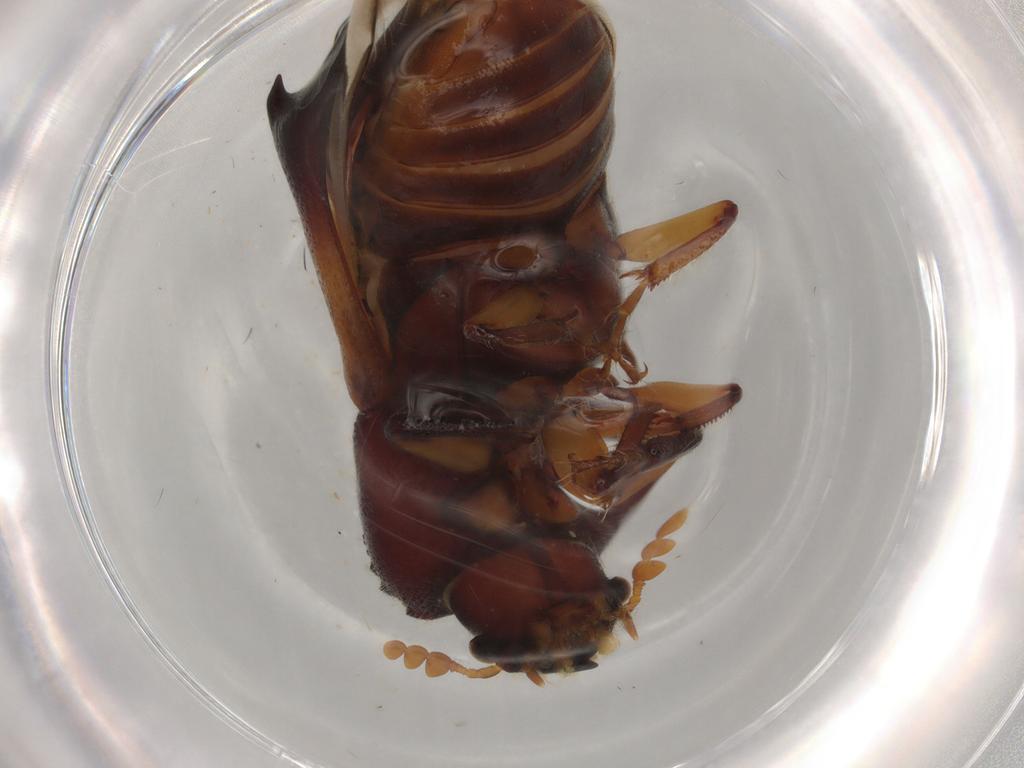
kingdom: Animalia
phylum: Arthropoda
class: Insecta
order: Coleoptera
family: Bostrichidae
